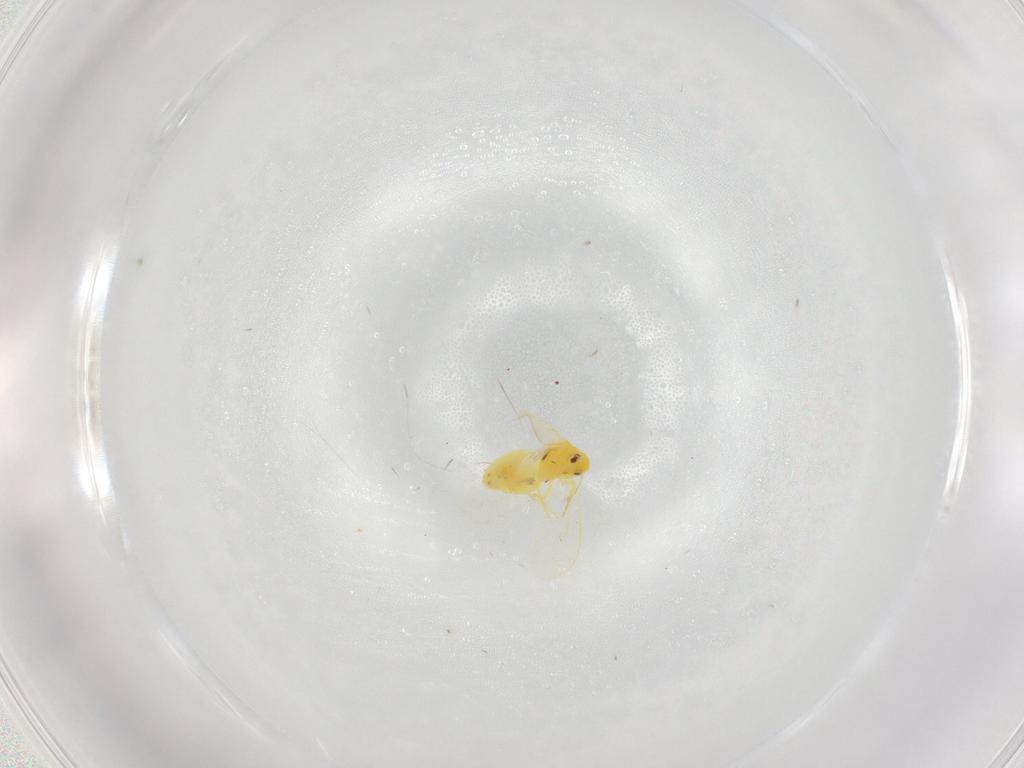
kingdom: Animalia
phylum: Arthropoda
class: Insecta
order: Hemiptera
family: Aleyrodidae
